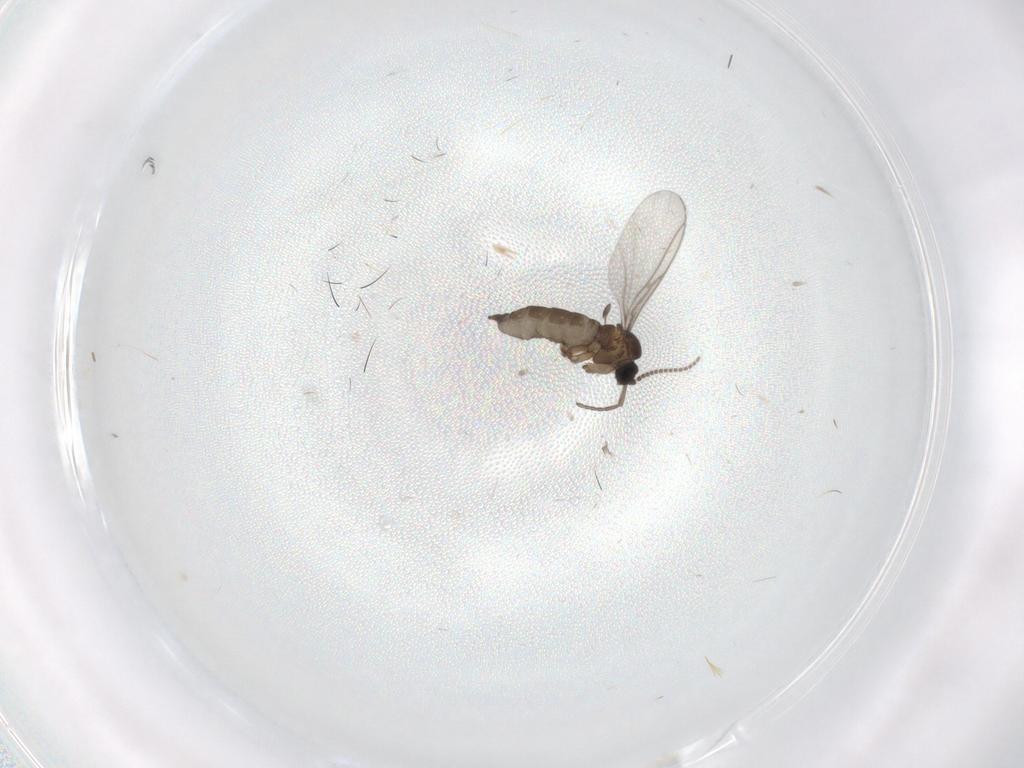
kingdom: Animalia
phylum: Arthropoda
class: Insecta
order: Diptera
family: Sciaridae
